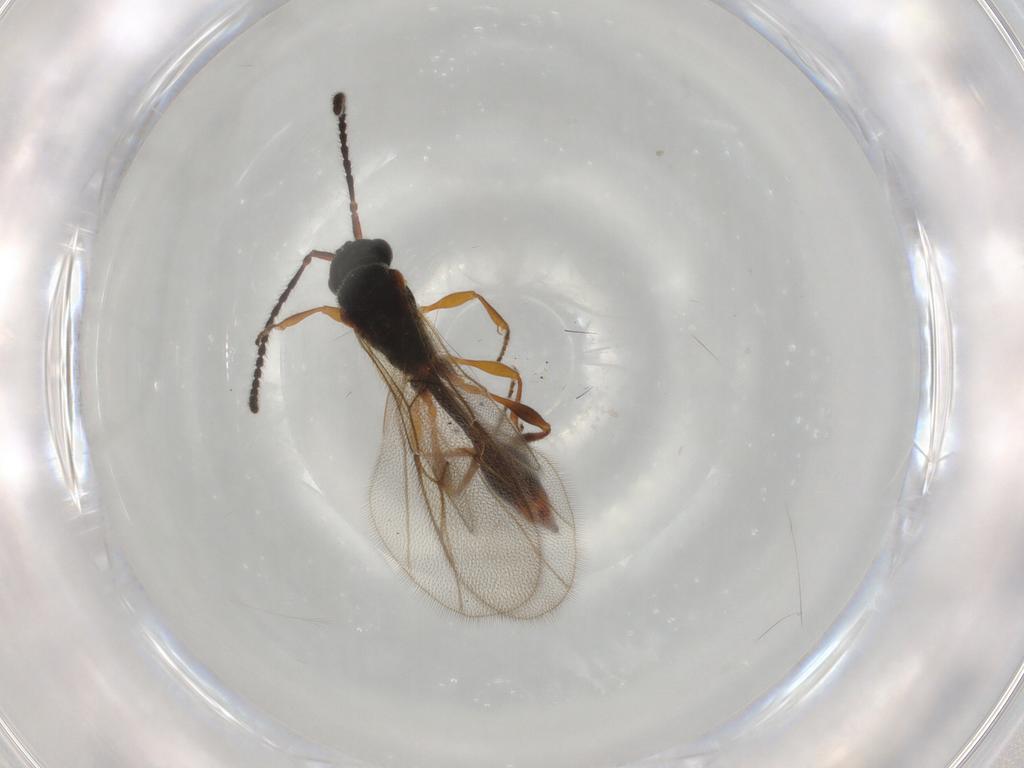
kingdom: Animalia
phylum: Arthropoda
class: Insecta
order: Hymenoptera
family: Diapriidae
